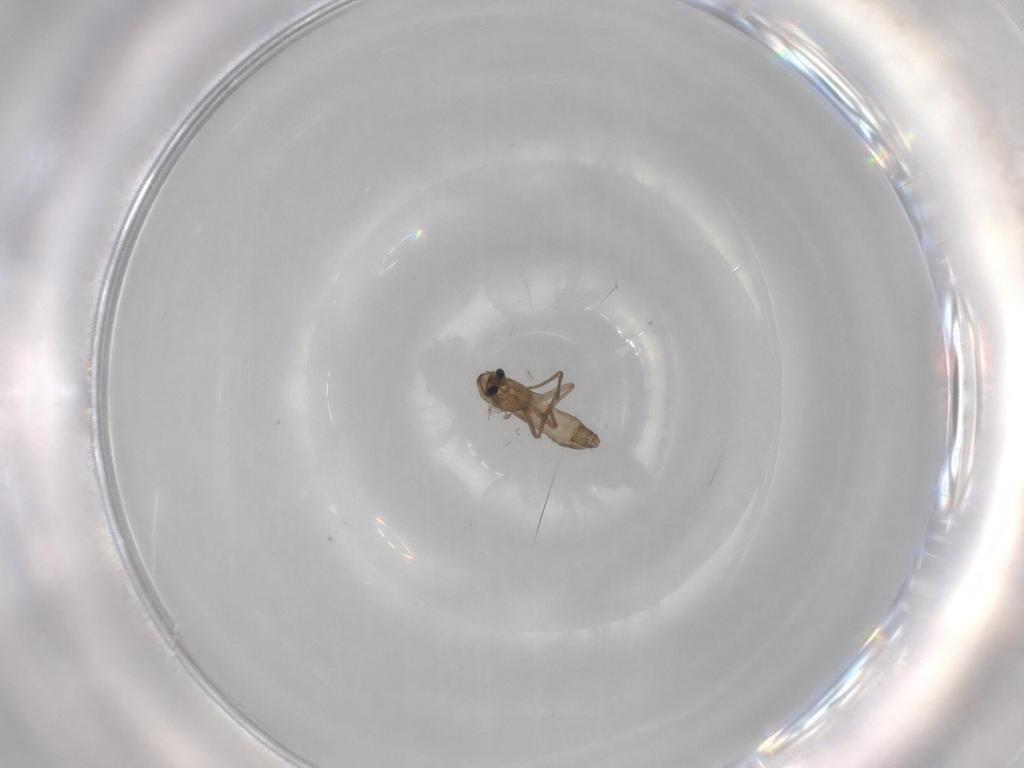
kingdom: Animalia
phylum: Arthropoda
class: Insecta
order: Diptera
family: Chironomidae
